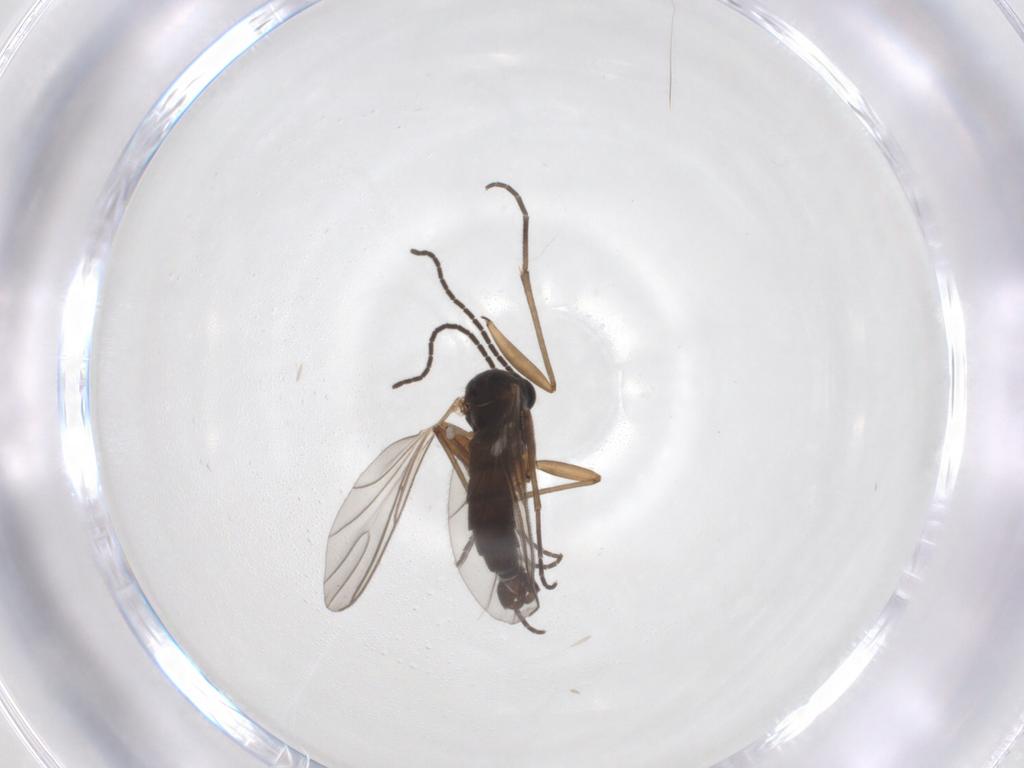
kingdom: Animalia
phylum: Arthropoda
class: Insecta
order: Diptera
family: Sciaridae
